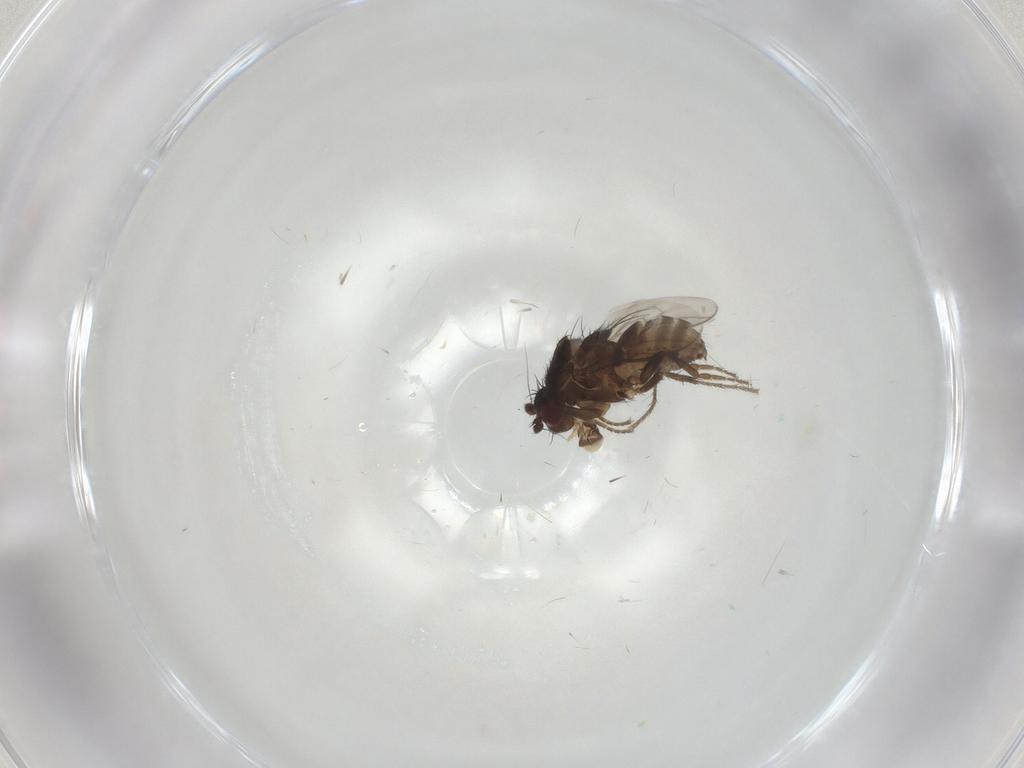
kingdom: Animalia
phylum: Arthropoda
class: Insecta
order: Diptera
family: Sphaeroceridae
